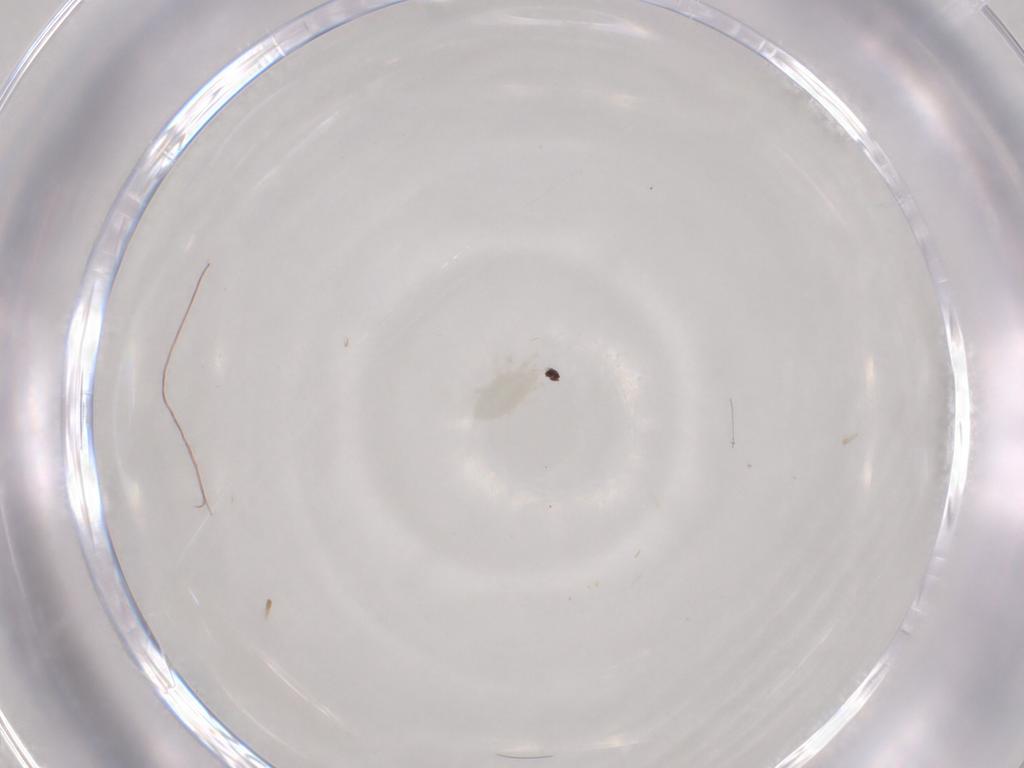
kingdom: Animalia
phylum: Arthropoda
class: Arachnida
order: Mesostigmata
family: Otopheidomenidae
